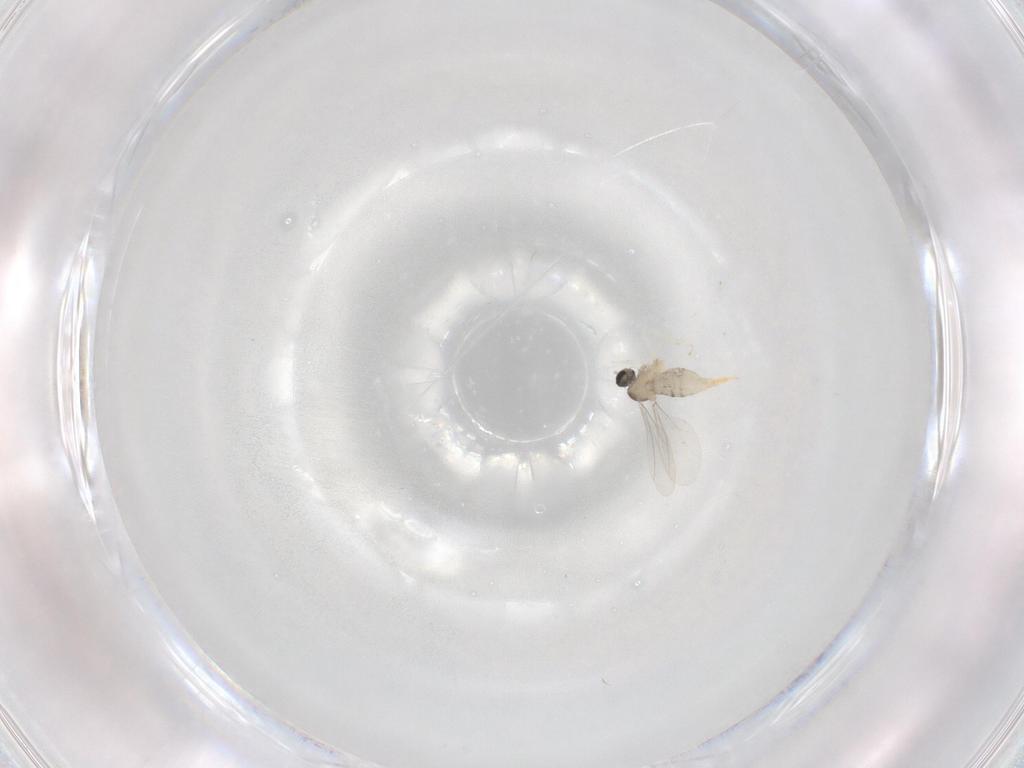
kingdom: Animalia
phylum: Arthropoda
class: Insecta
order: Diptera
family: Cecidomyiidae
